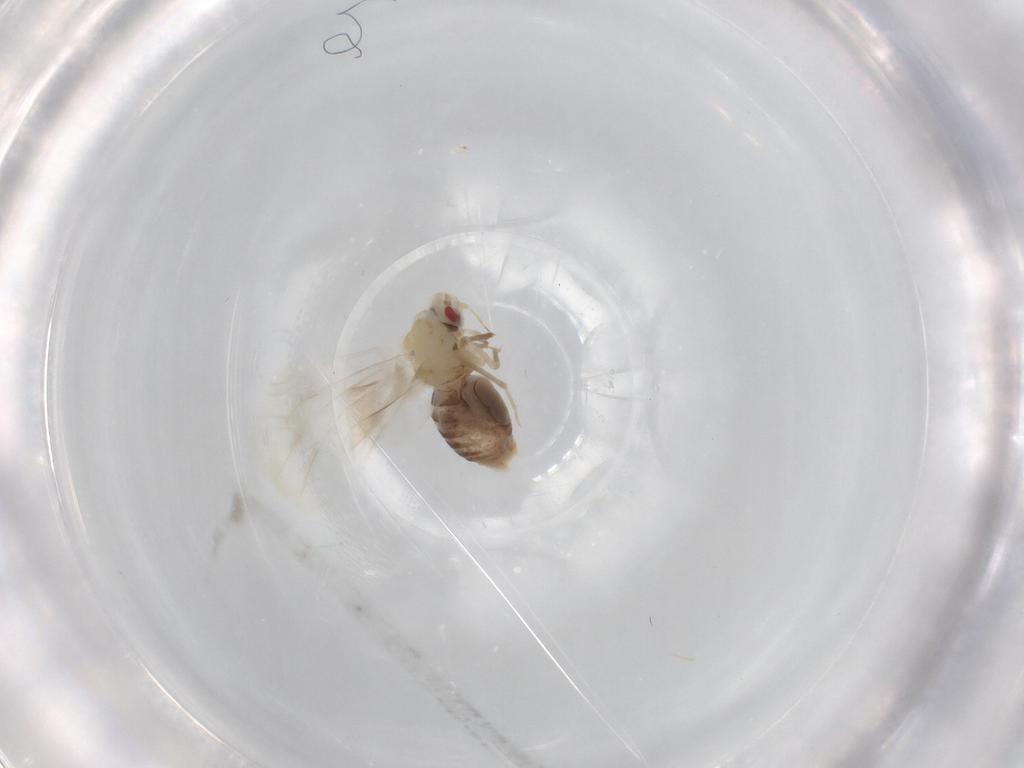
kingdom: Animalia
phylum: Arthropoda
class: Insecta
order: Hemiptera
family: Aleyrodidae
